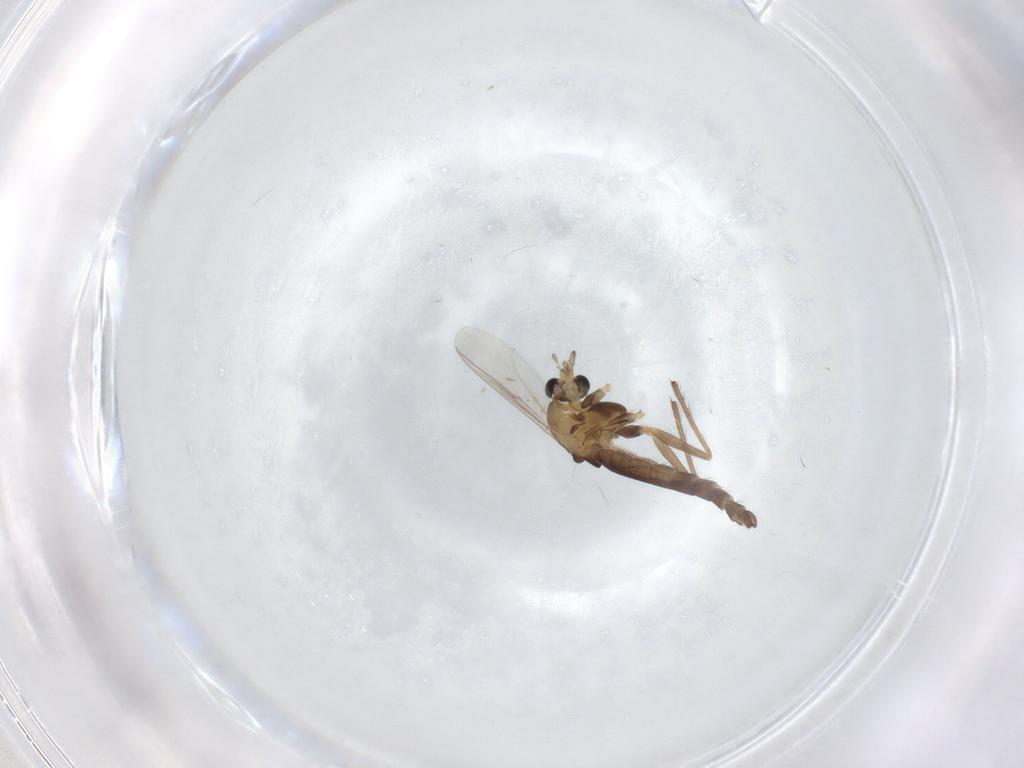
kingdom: Animalia
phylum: Arthropoda
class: Insecta
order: Diptera
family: Chironomidae
